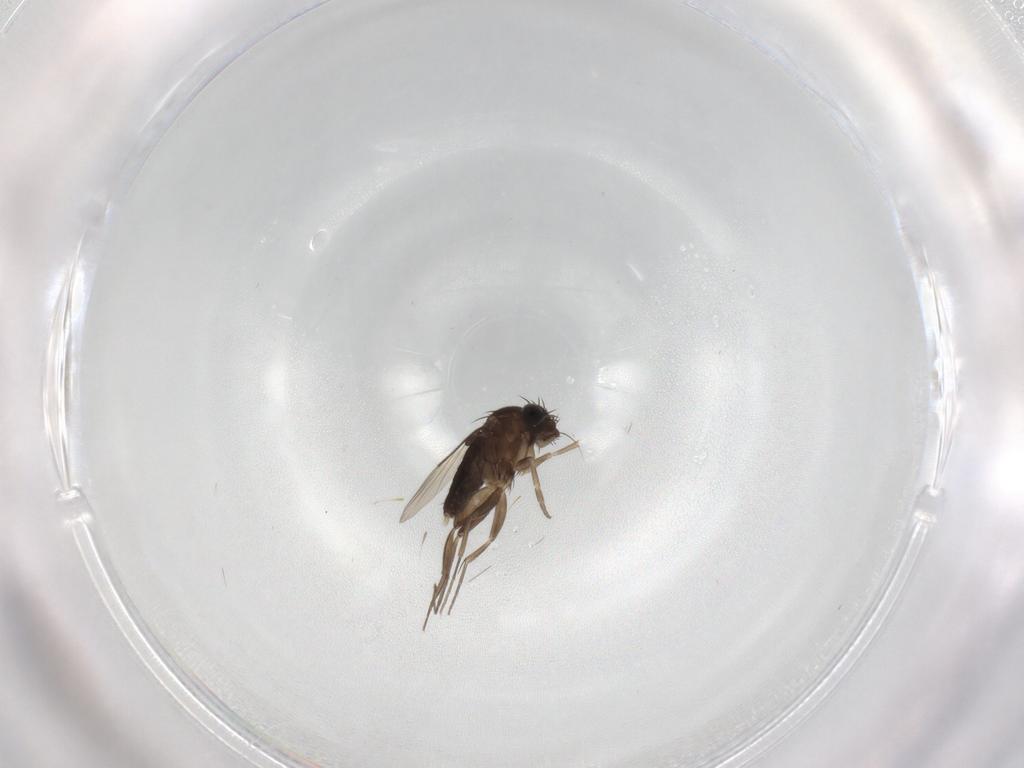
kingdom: Animalia
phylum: Arthropoda
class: Insecta
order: Diptera
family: Phoridae
